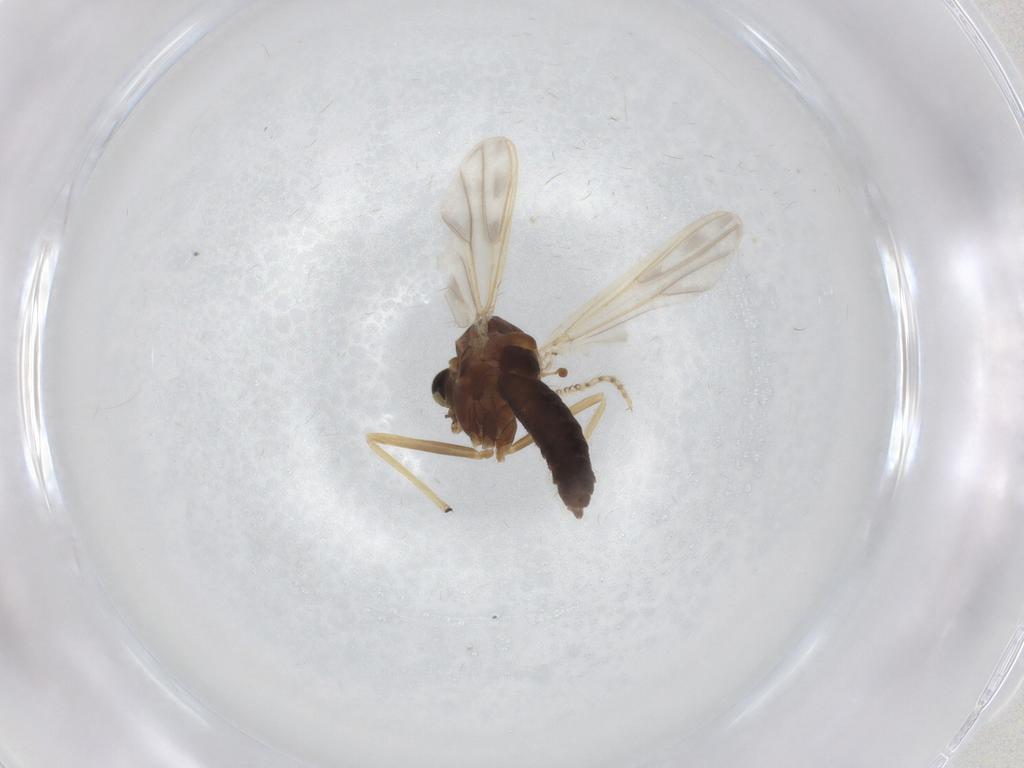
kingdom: Animalia
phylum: Arthropoda
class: Insecta
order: Diptera
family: Chironomidae
